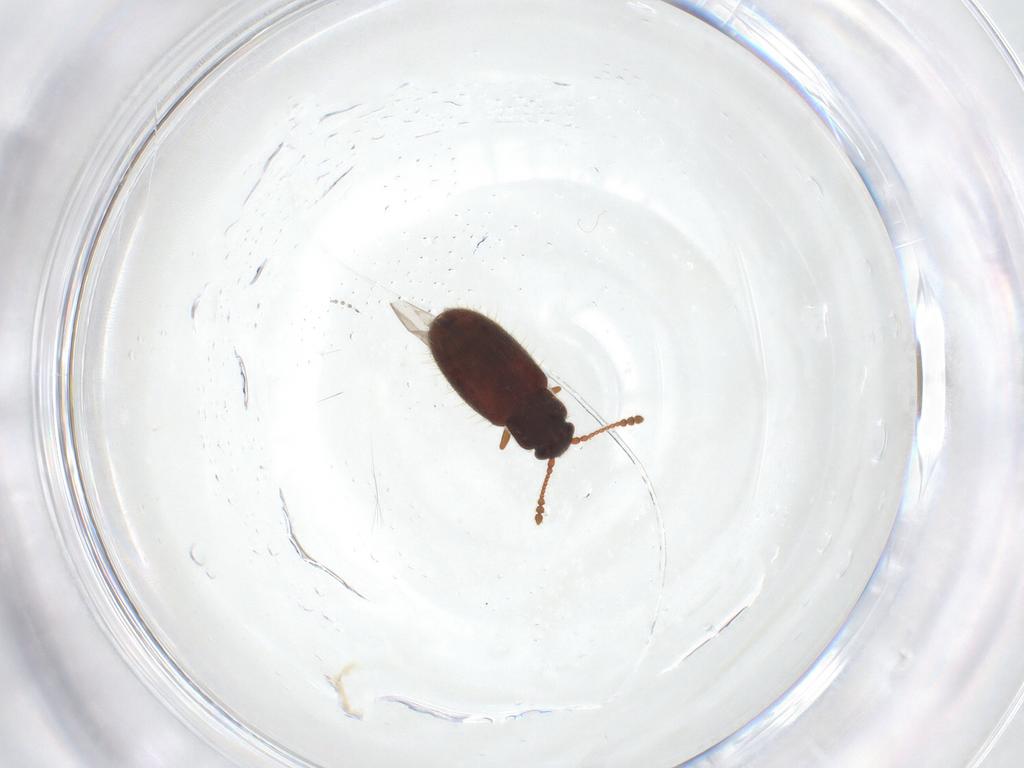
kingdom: Animalia
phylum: Arthropoda
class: Insecta
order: Coleoptera
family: Cryptophagidae
